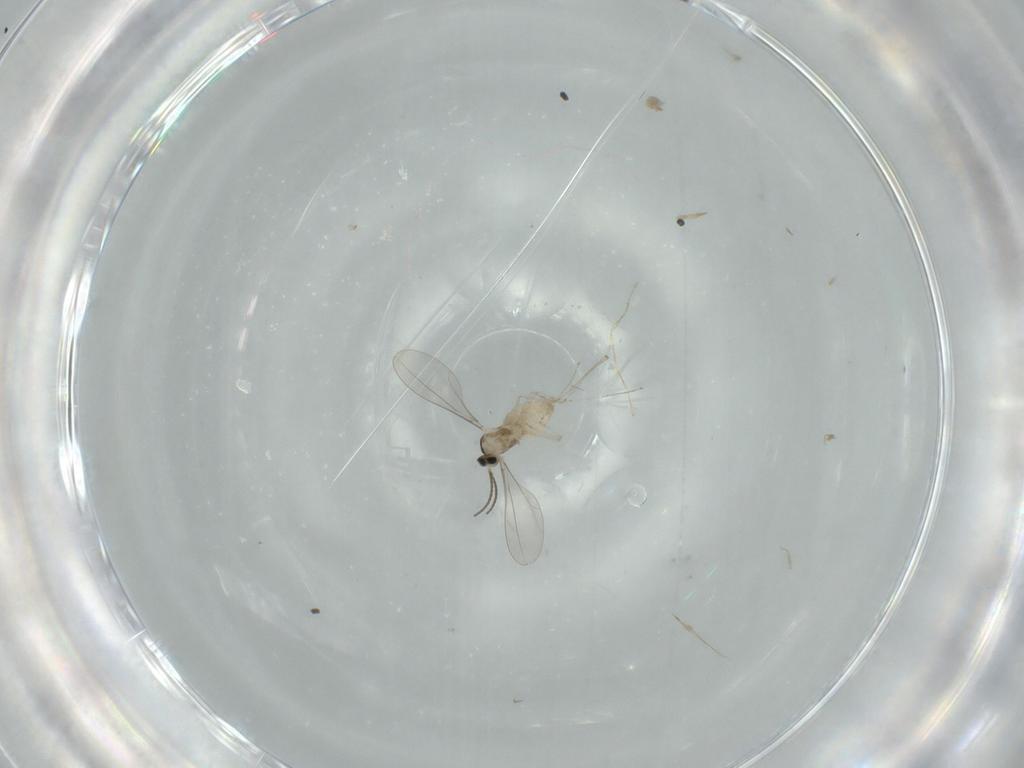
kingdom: Animalia
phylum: Arthropoda
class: Insecta
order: Diptera
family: Cecidomyiidae
